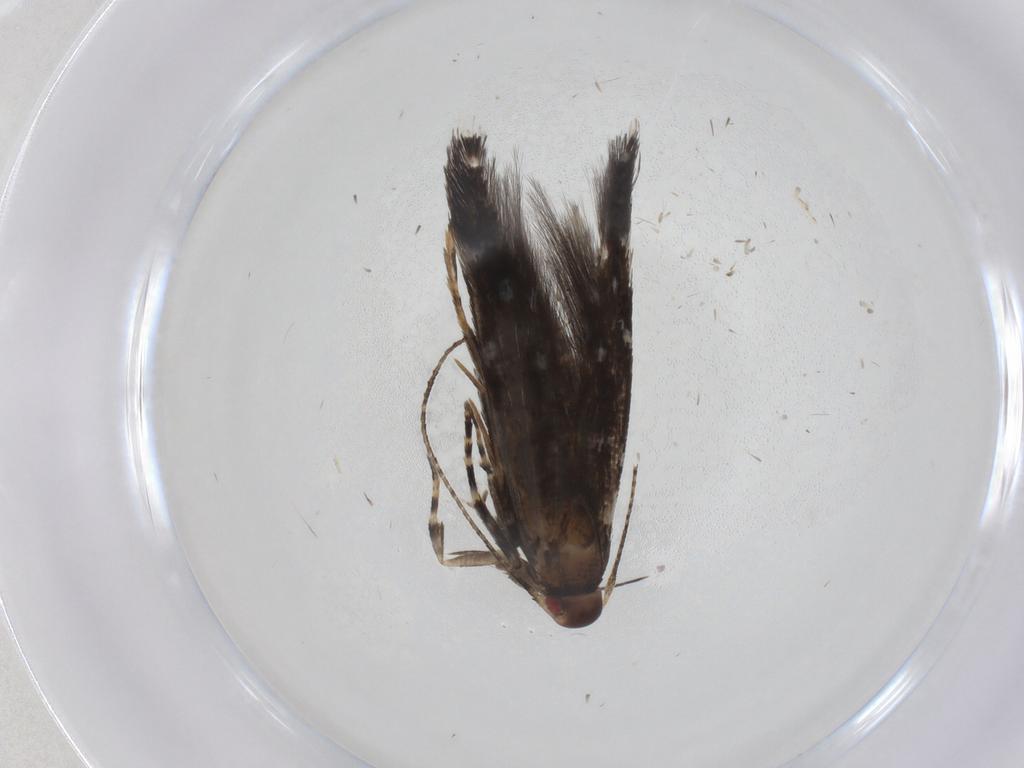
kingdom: Animalia
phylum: Arthropoda
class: Insecta
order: Lepidoptera
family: Cosmopterigidae
